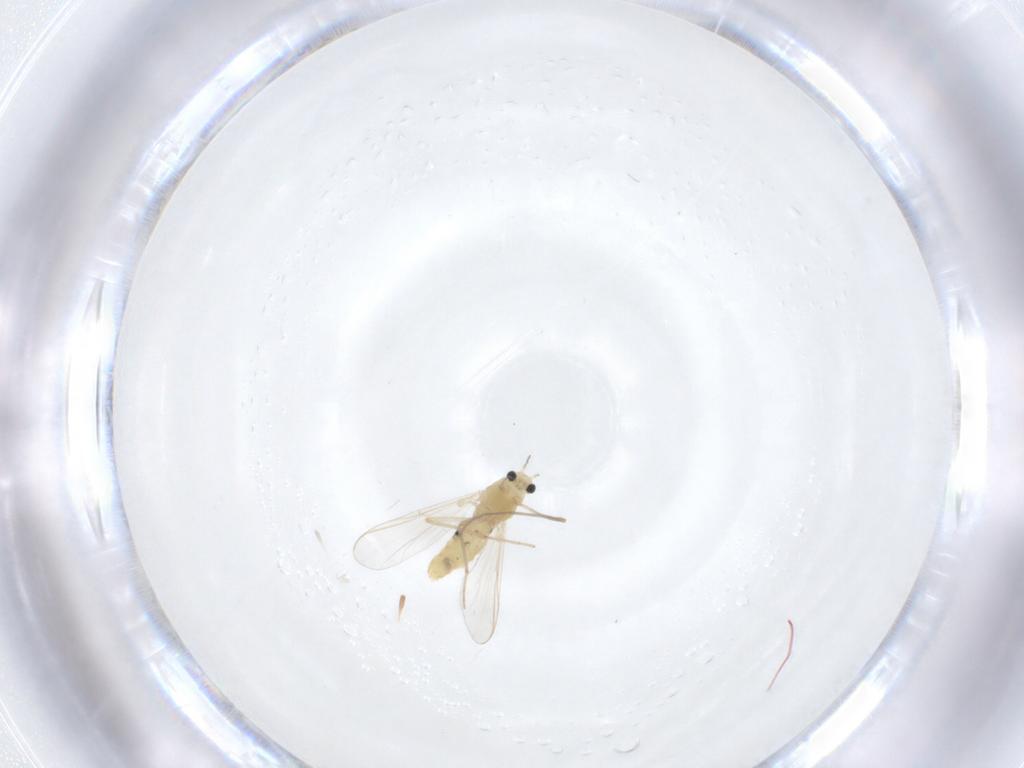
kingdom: Animalia
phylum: Arthropoda
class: Insecta
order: Diptera
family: Chironomidae
